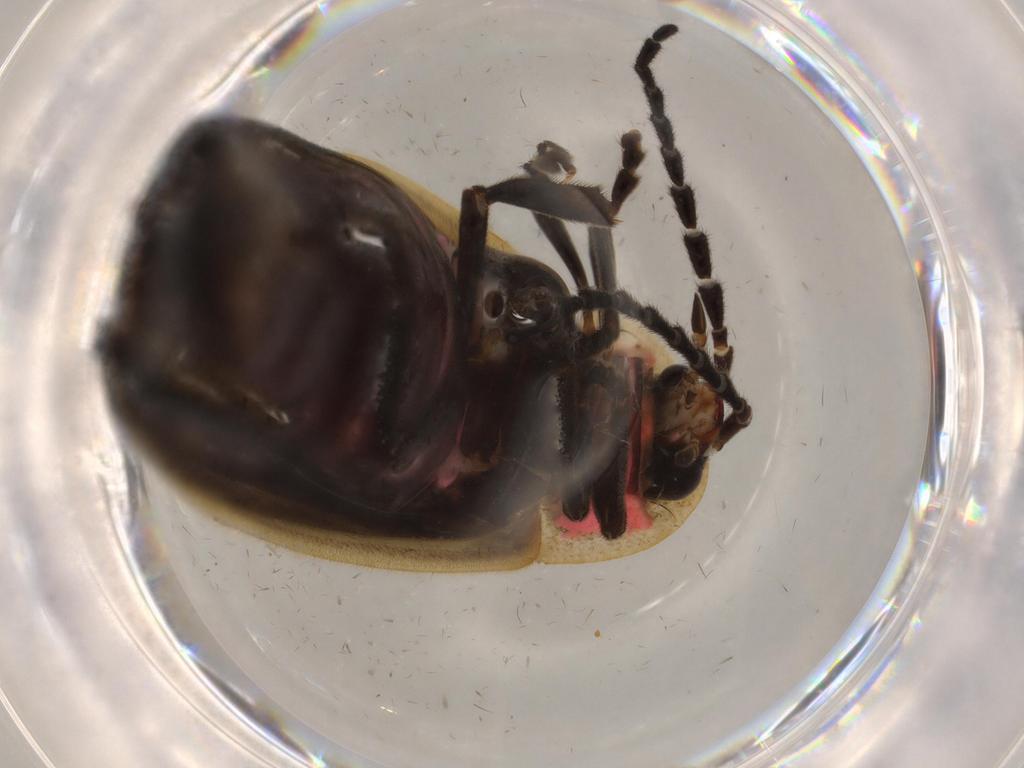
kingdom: Animalia
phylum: Arthropoda
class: Insecta
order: Coleoptera
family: Lampyridae
